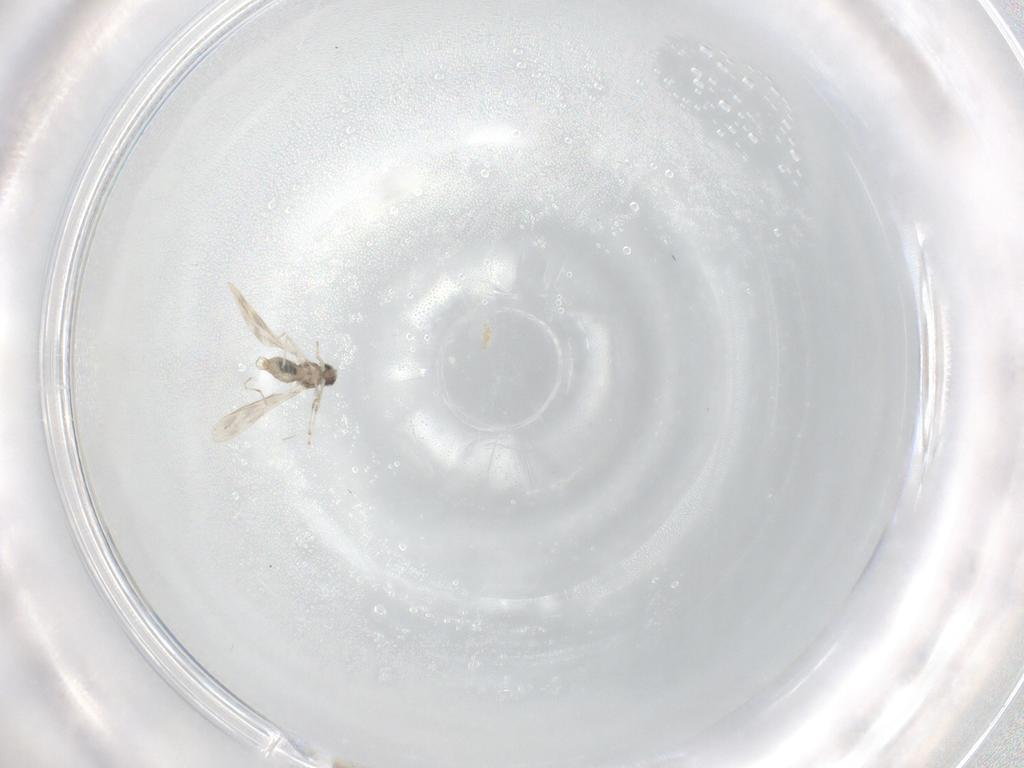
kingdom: Animalia
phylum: Arthropoda
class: Insecta
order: Diptera
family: Cecidomyiidae
